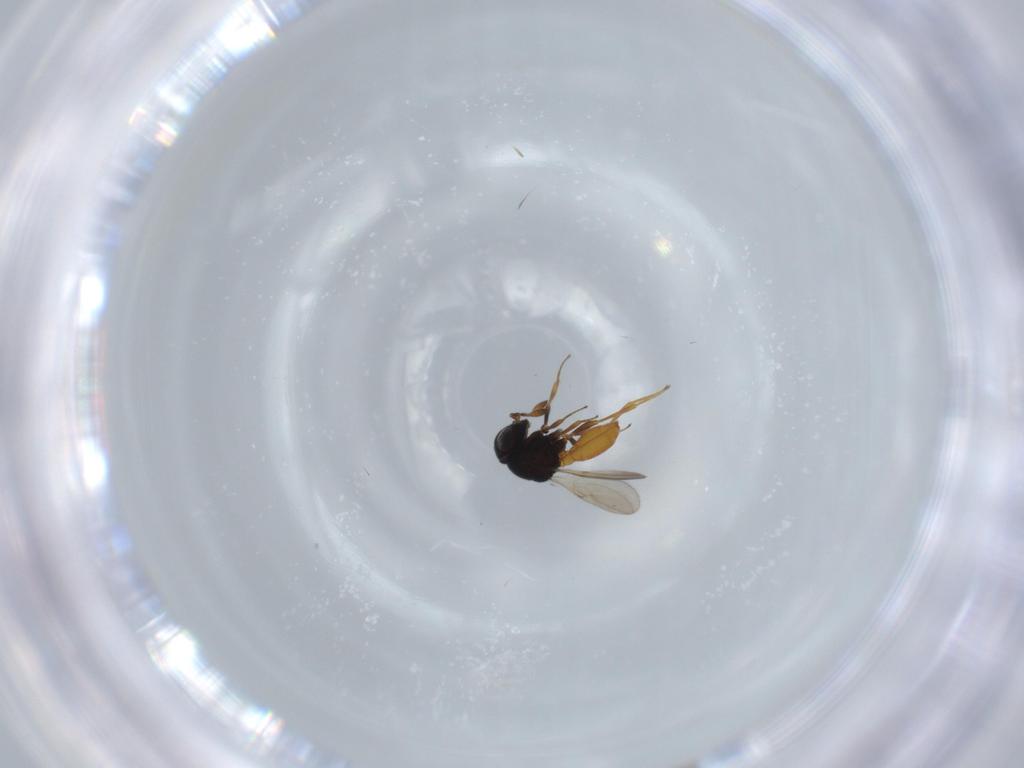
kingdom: Animalia
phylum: Arthropoda
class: Insecta
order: Hymenoptera
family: Scelionidae
